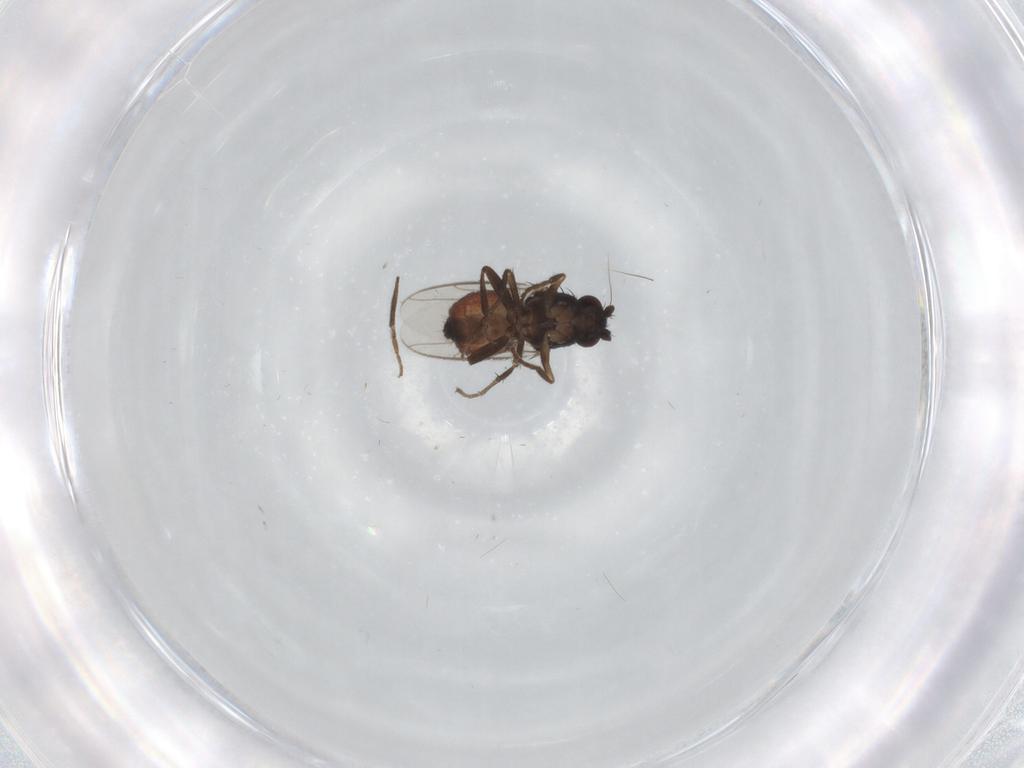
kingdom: Animalia
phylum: Arthropoda
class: Insecta
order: Diptera
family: Sphaeroceridae
